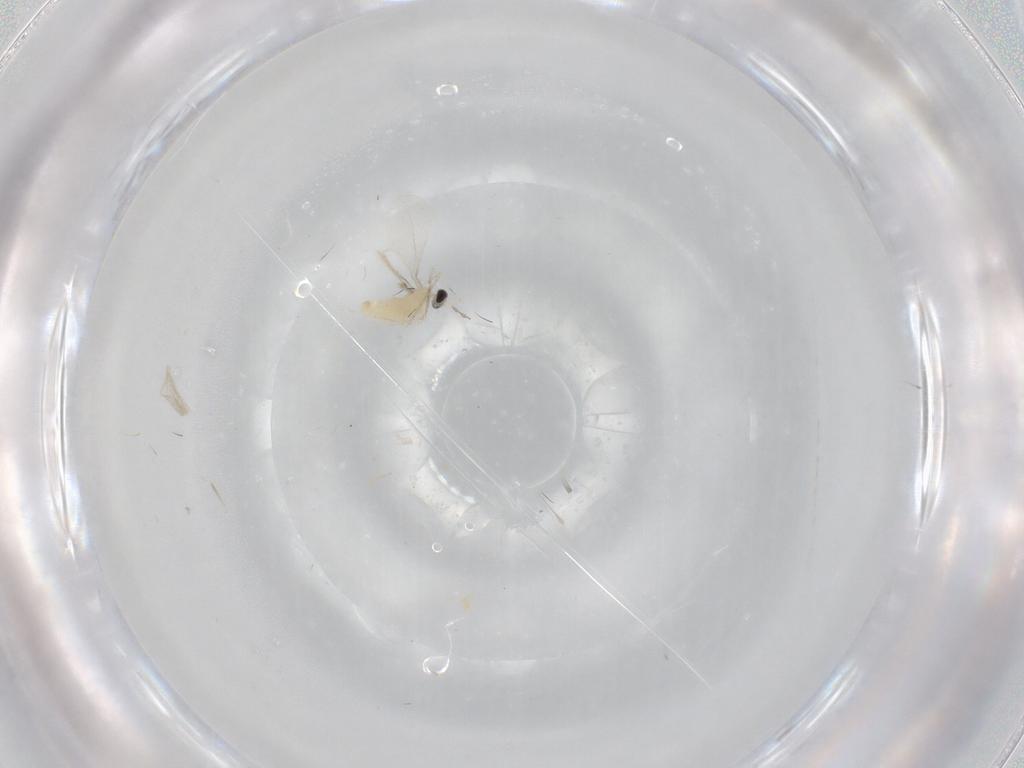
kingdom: Animalia
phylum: Arthropoda
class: Insecta
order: Diptera
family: Cecidomyiidae
